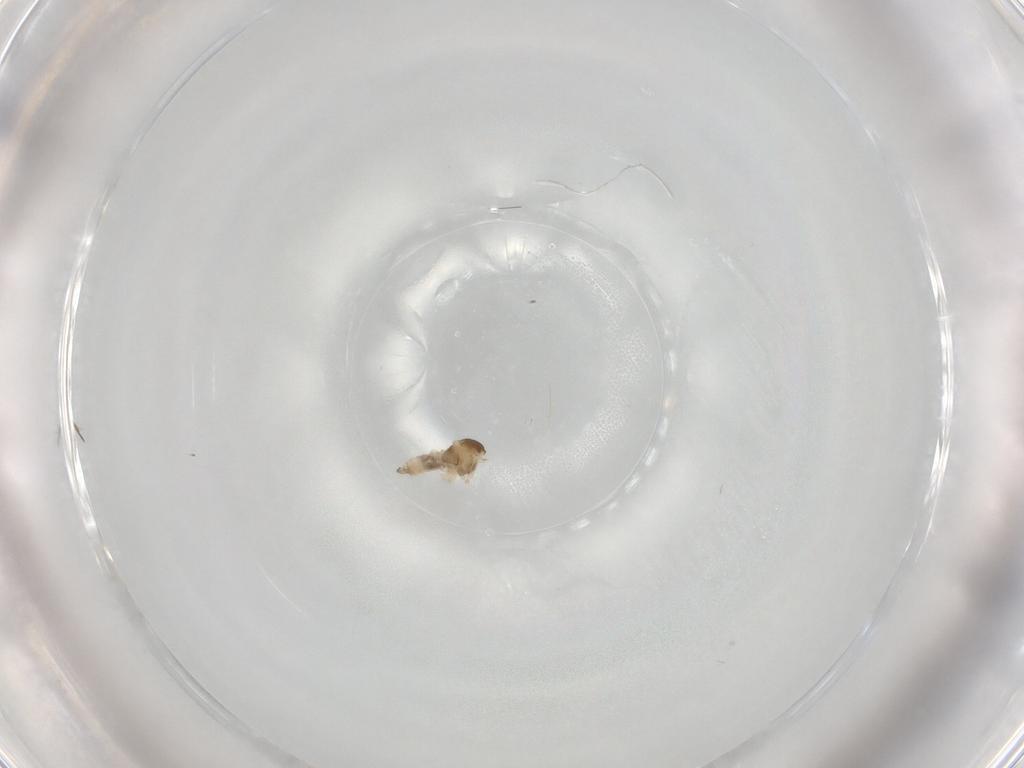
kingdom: Animalia
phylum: Arthropoda
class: Insecta
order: Diptera
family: Cecidomyiidae
